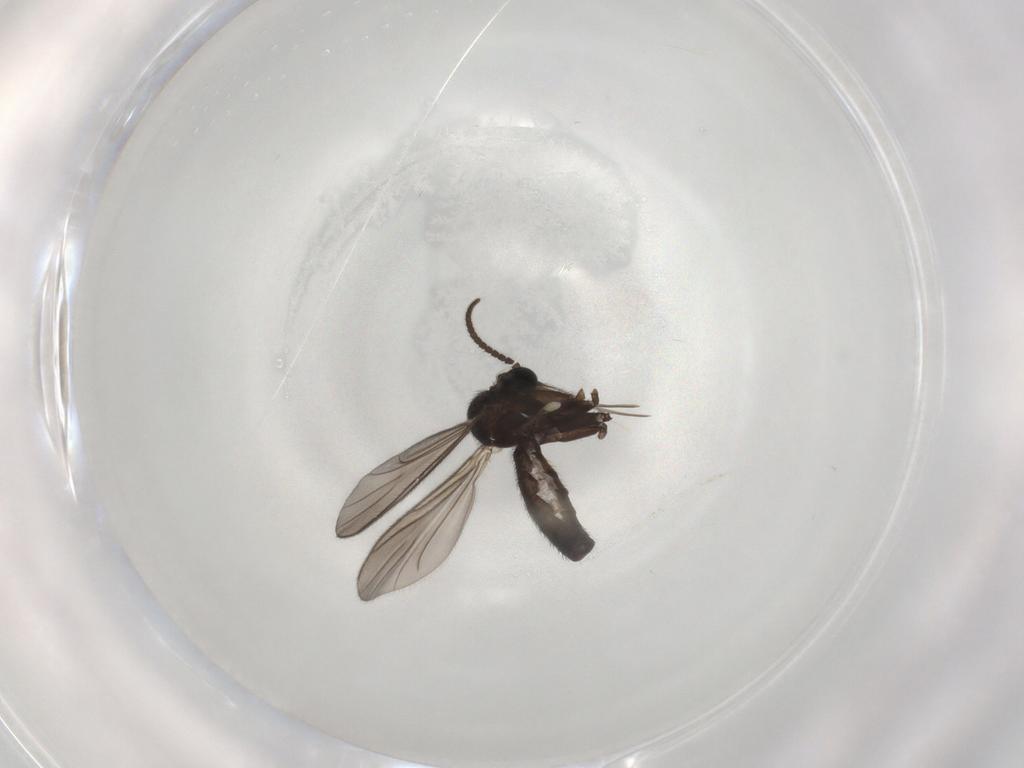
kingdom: Animalia
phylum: Arthropoda
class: Insecta
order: Diptera
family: Keroplatidae
